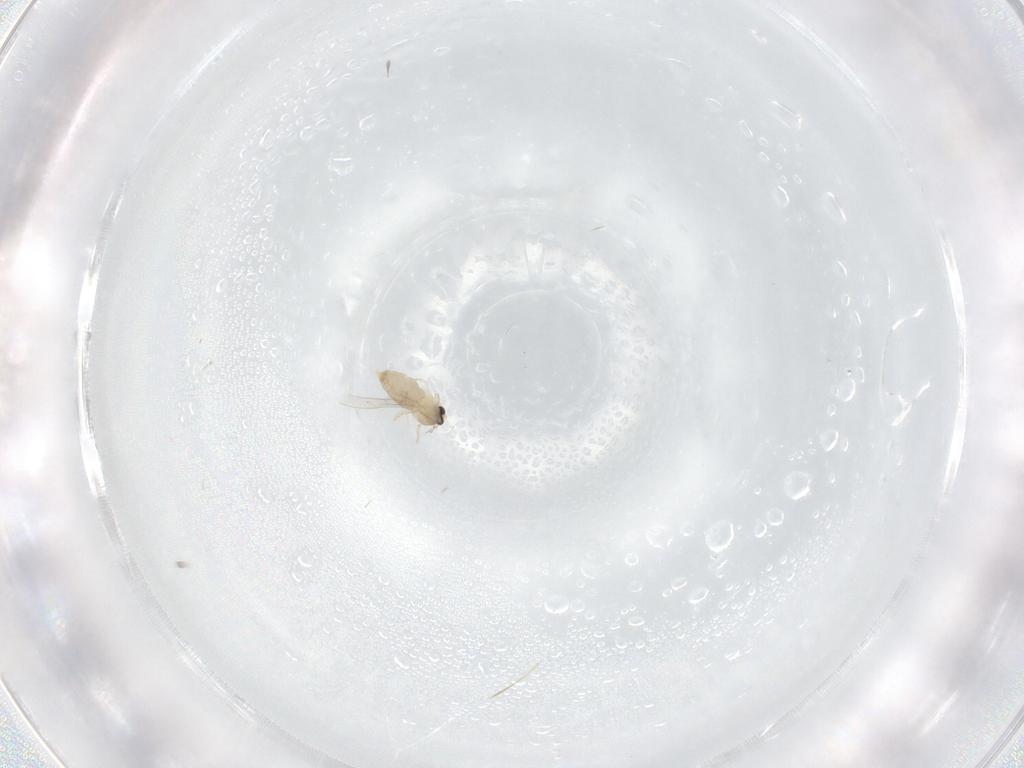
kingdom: Animalia
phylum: Arthropoda
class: Insecta
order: Diptera
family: Cecidomyiidae
